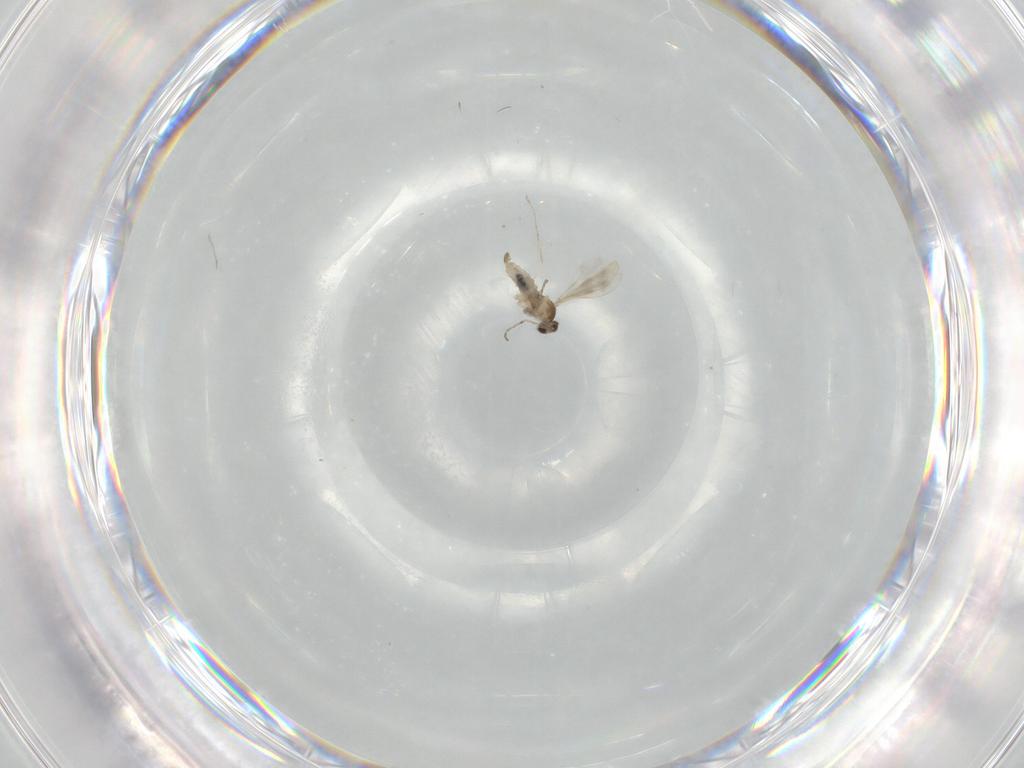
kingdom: Animalia
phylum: Arthropoda
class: Insecta
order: Diptera
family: Cecidomyiidae
